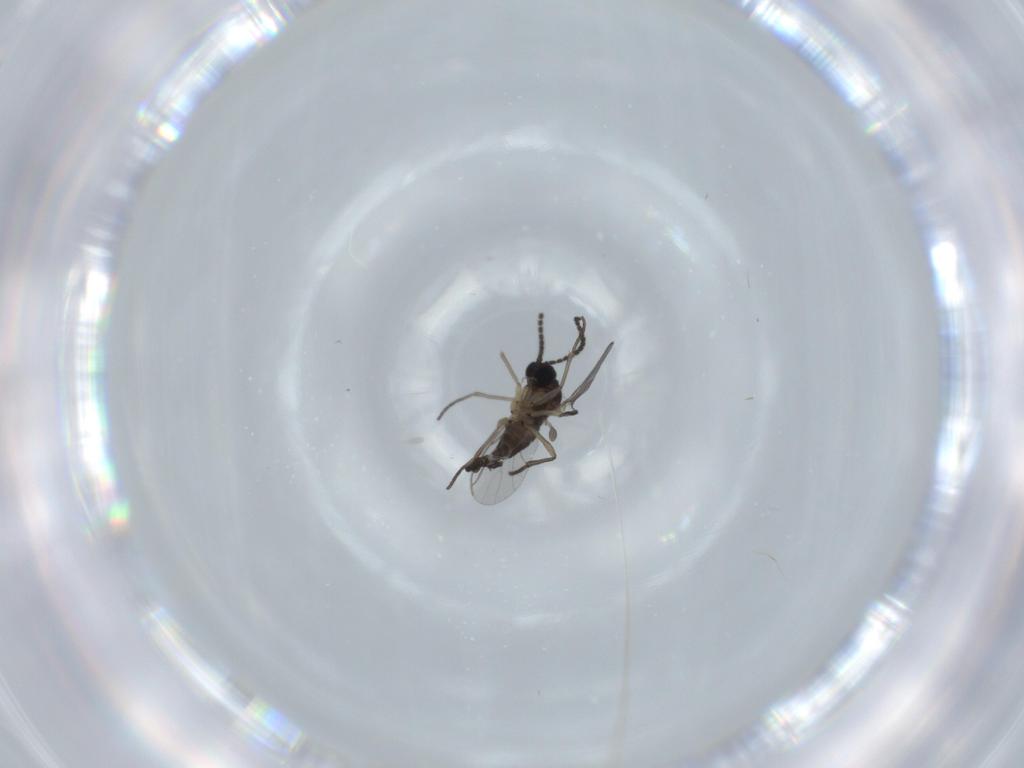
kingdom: Animalia
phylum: Arthropoda
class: Insecta
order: Diptera
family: Sciaridae
